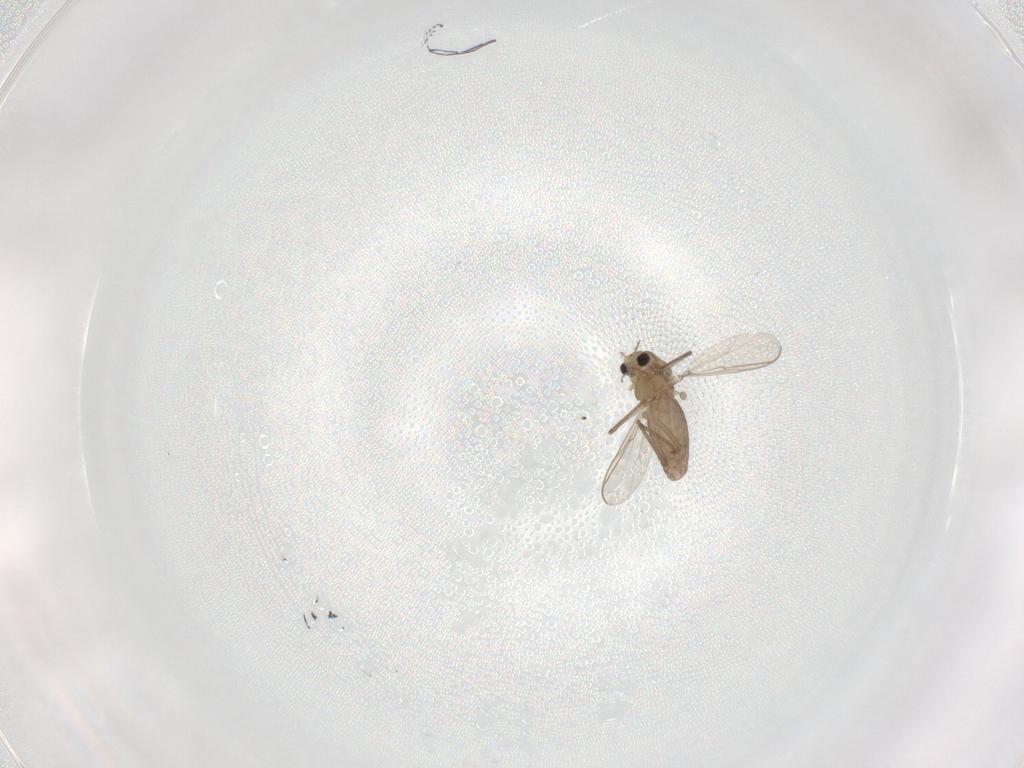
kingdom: Animalia
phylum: Arthropoda
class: Insecta
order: Diptera
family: Chironomidae
